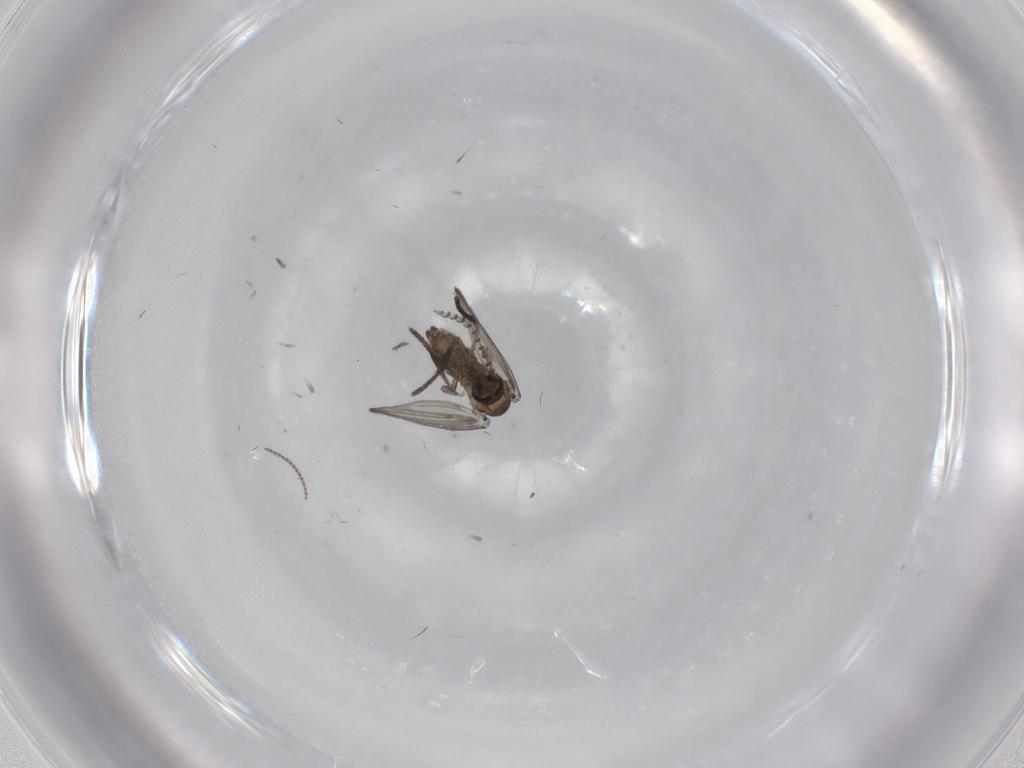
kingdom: Animalia
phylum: Arthropoda
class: Insecta
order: Diptera
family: Psychodidae
